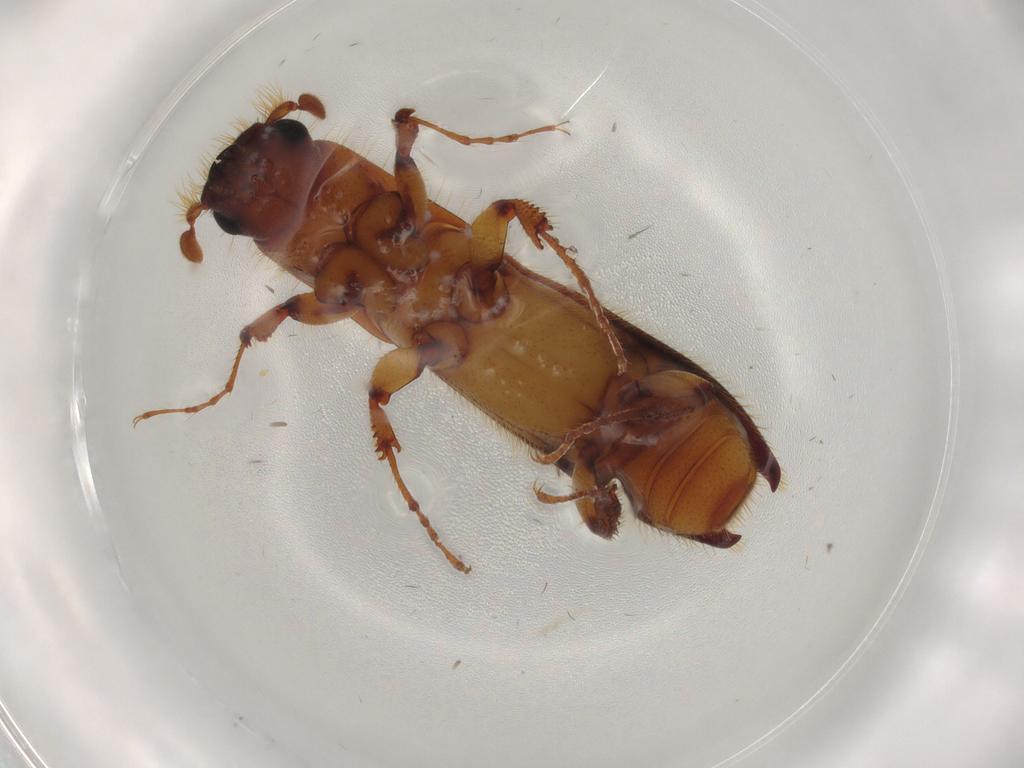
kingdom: Animalia
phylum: Arthropoda
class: Insecta
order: Coleoptera
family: Curculionidae
